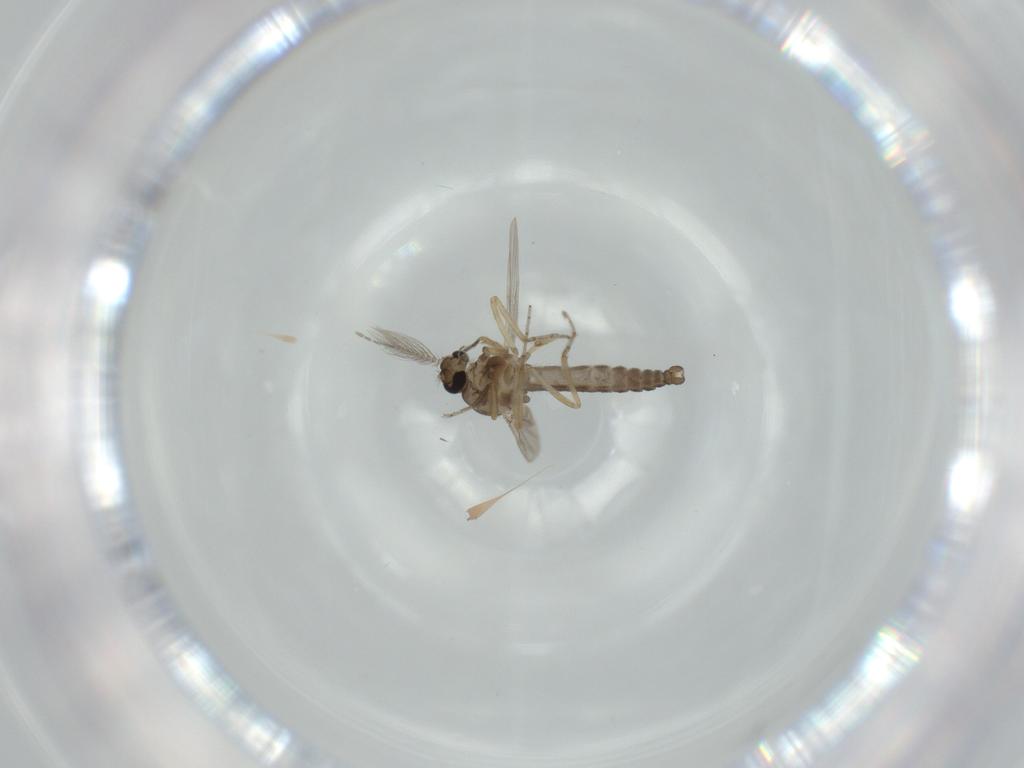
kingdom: Animalia
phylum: Arthropoda
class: Insecta
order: Diptera
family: Ceratopogonidae
